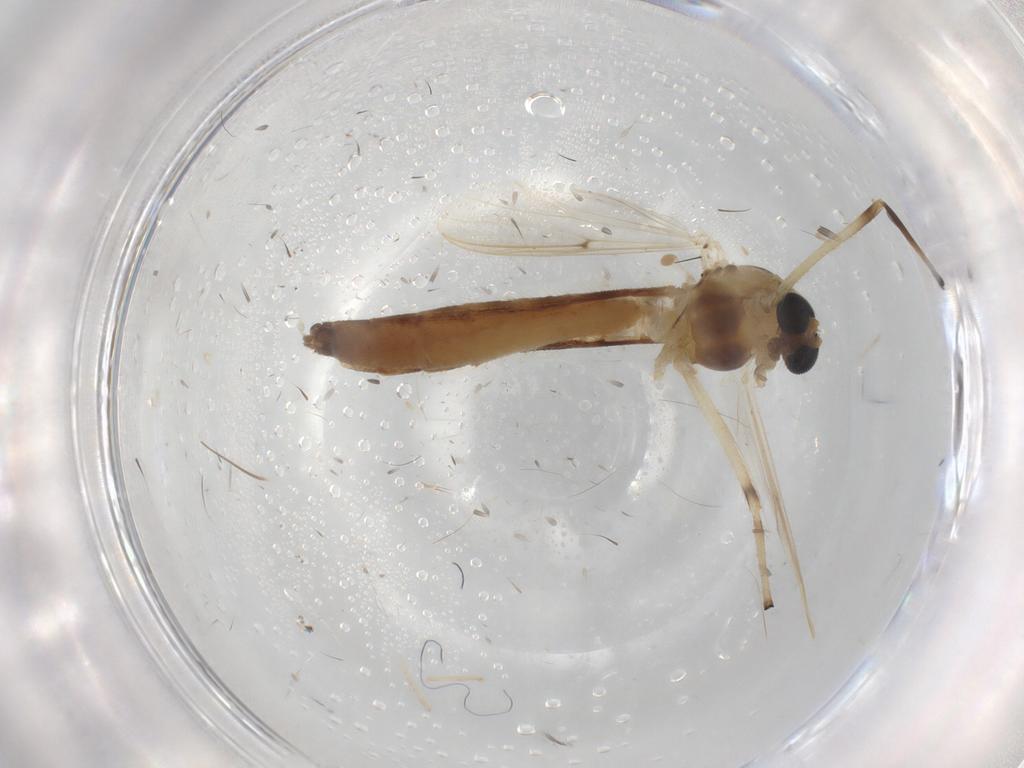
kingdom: Animalia
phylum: Arthropoda
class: Insecta
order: Diptera
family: Chironomidae
